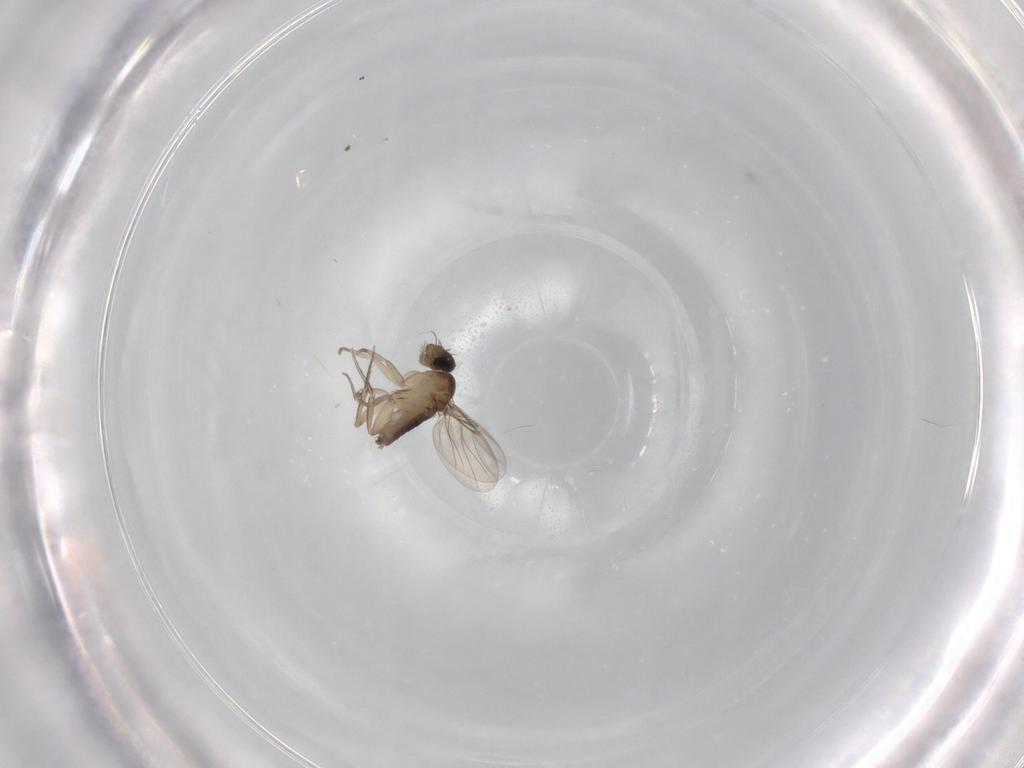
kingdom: Animalia
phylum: Arthropoda
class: Insecta
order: Diptera
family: Phoridae
